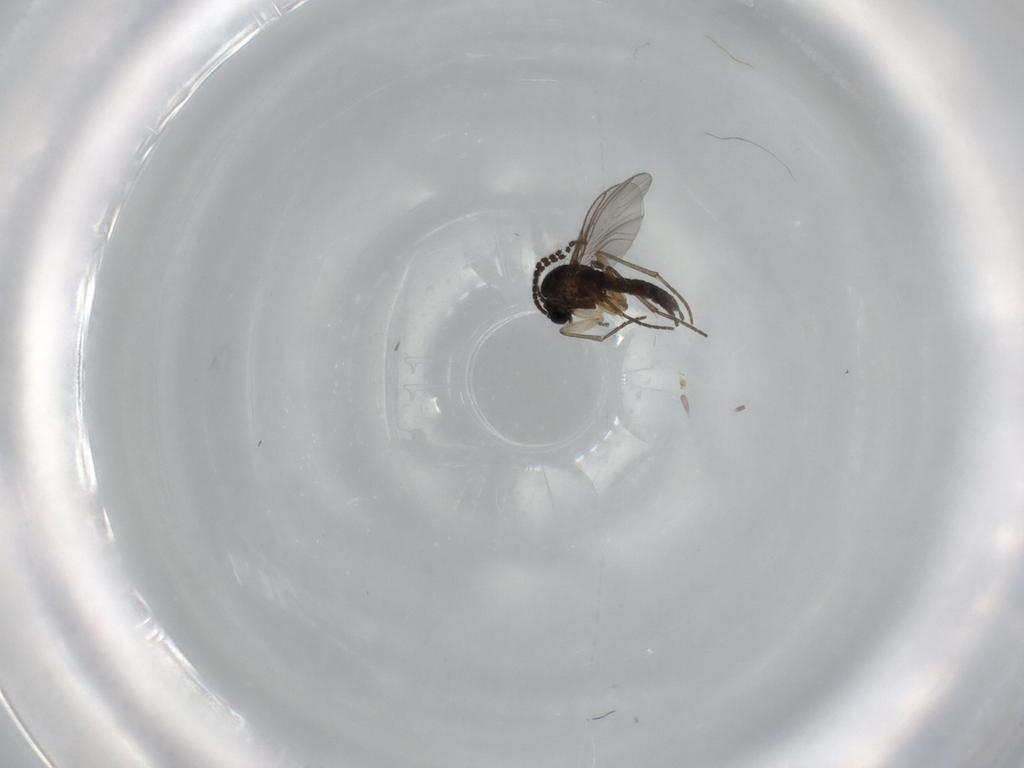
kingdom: Animalia
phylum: Arthropoda
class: Insecta
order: Diptera
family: Sciaridae
